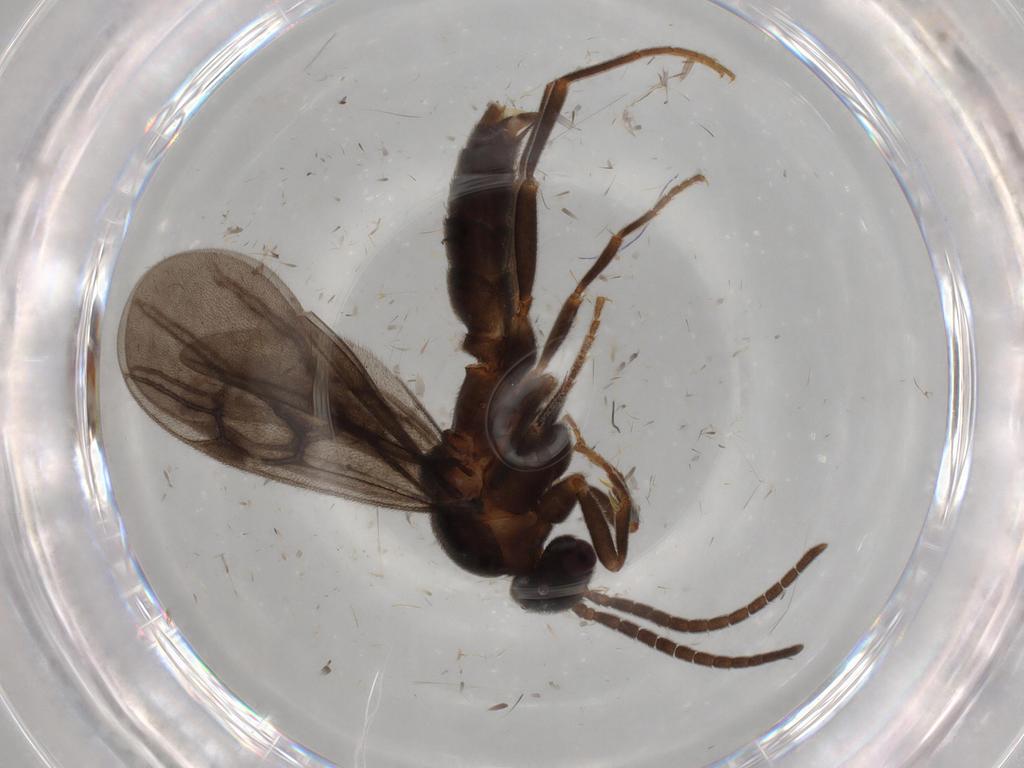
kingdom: Animalia
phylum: Arthropoda
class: Insecta
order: Hymenoptera
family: Formicidae
